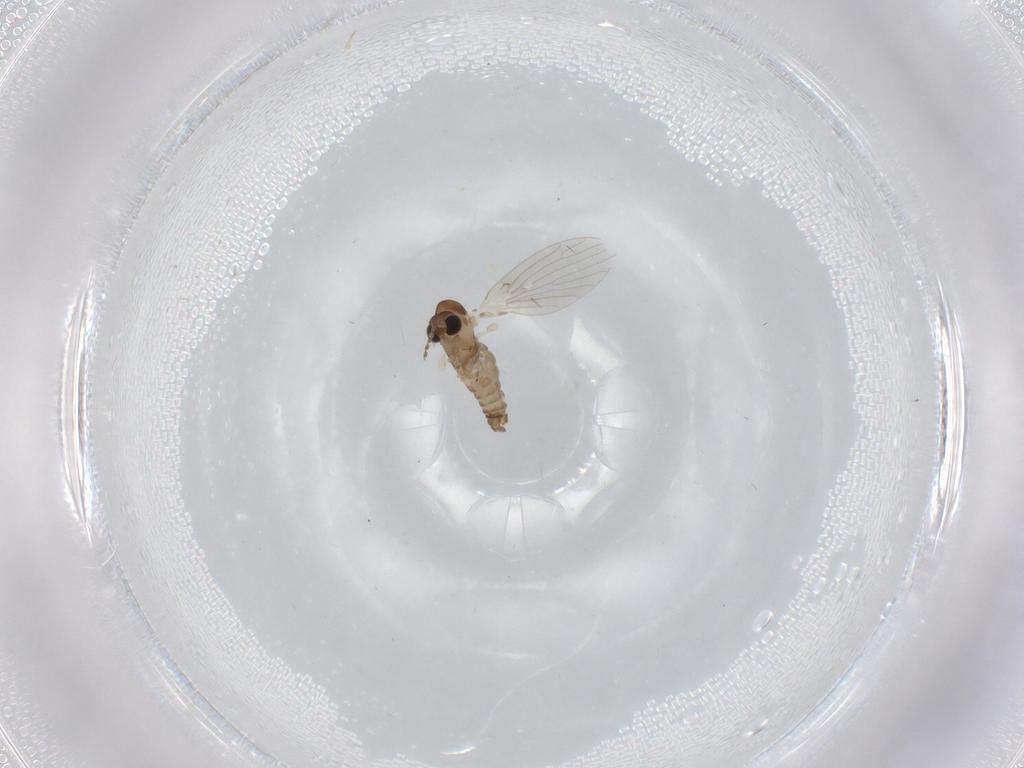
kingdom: Animalia
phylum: Arthropoda
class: Insecta
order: Diptera
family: Psychodidae
